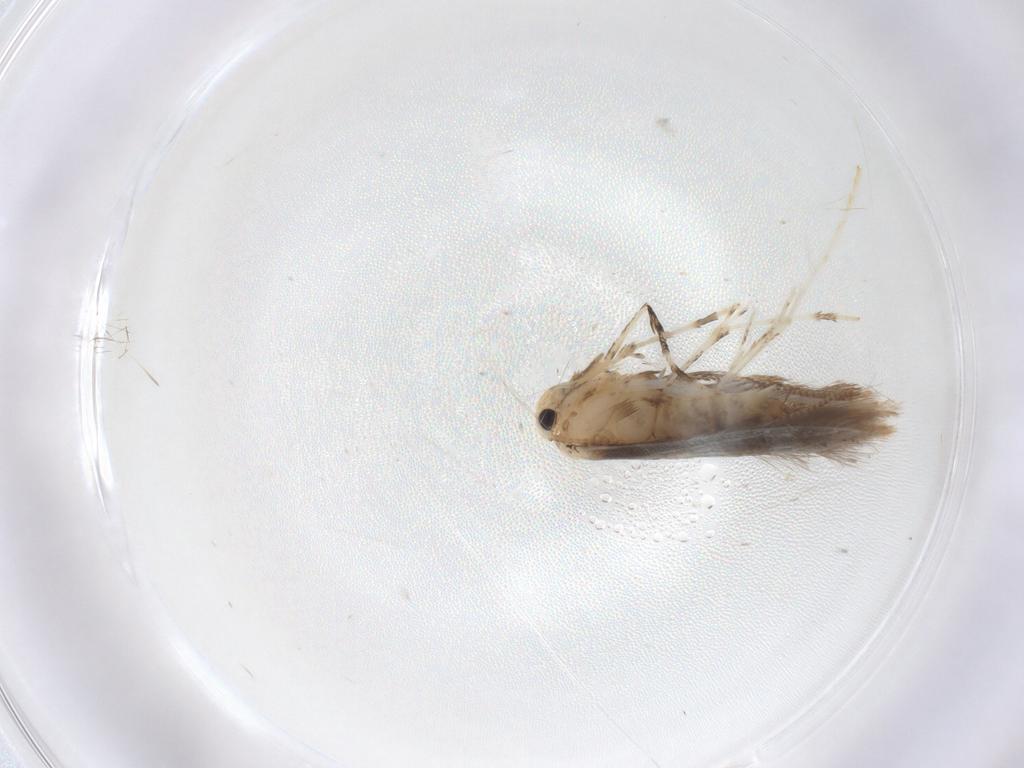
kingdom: Animalia
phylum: Arthropoda
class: Insecta
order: Lepidoptera
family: Gracillariidae
